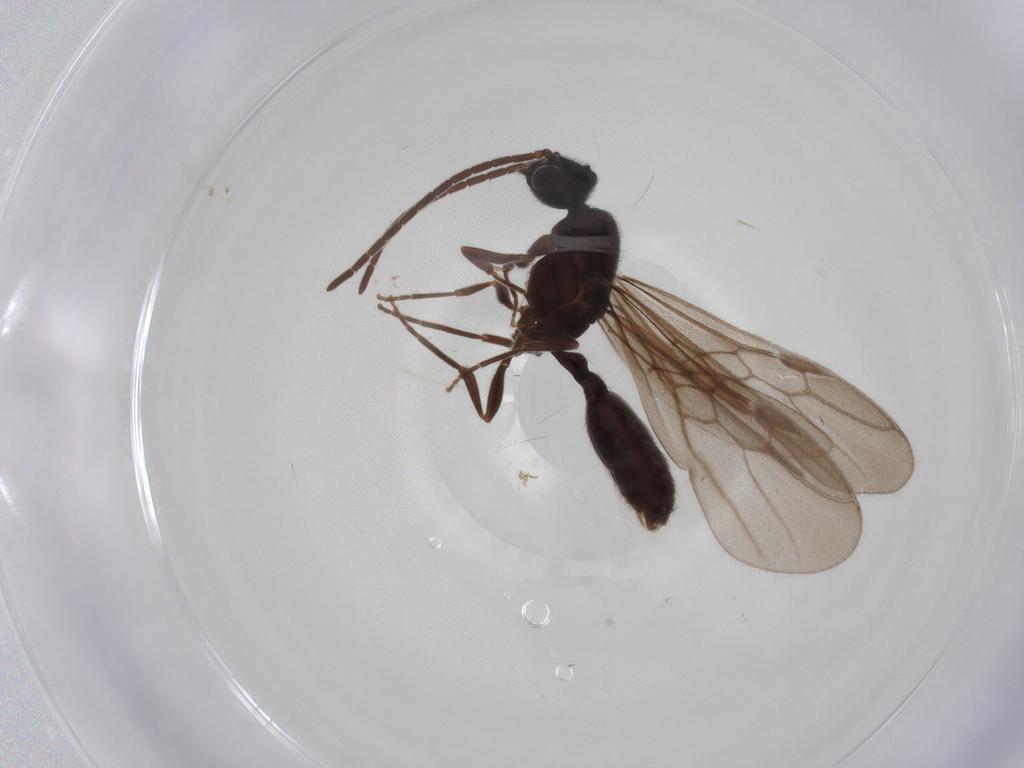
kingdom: Animalia
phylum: Arthropoda
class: Insecta
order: Hymenoptera
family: Formicidae
